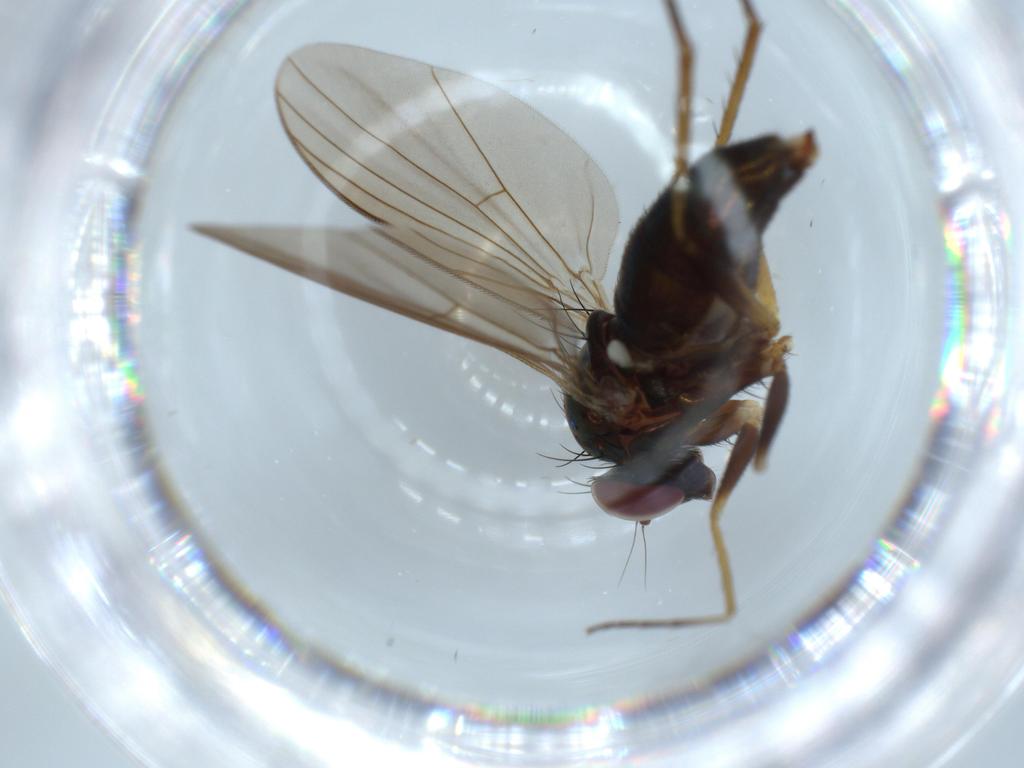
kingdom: Animalia
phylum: Arthropoda
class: Insecta
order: Diptera
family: Dolichopodidae
